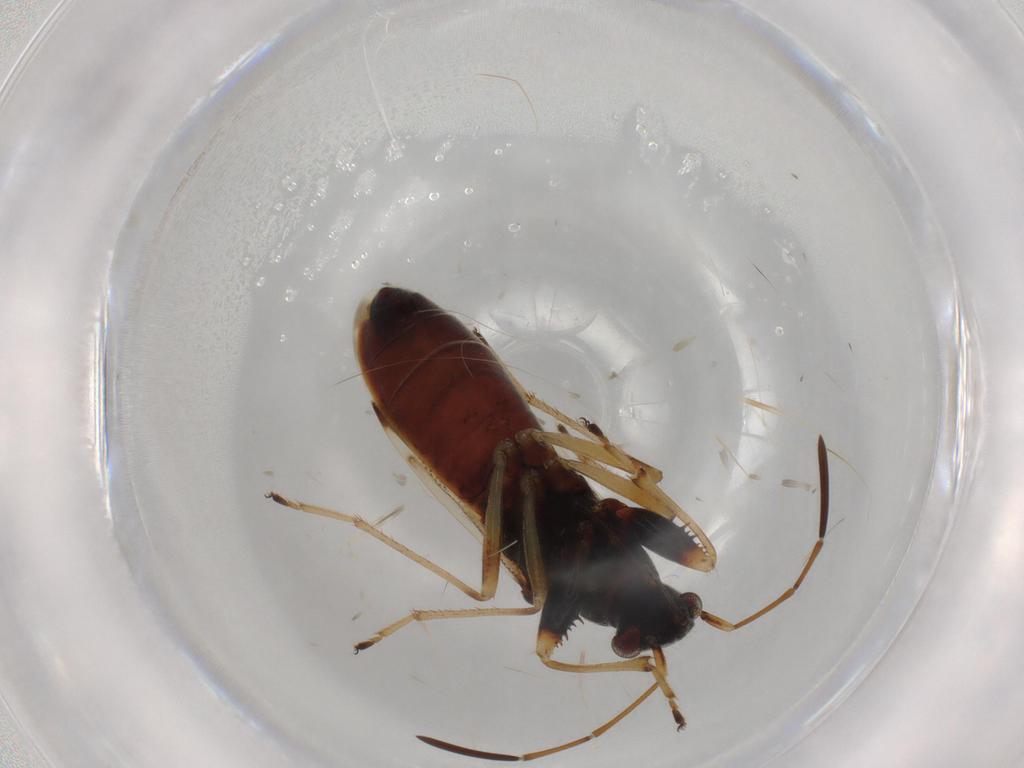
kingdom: Animalia
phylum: Arthropoda
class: Insecta
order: Hemiptera
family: Rhyparochromidae
